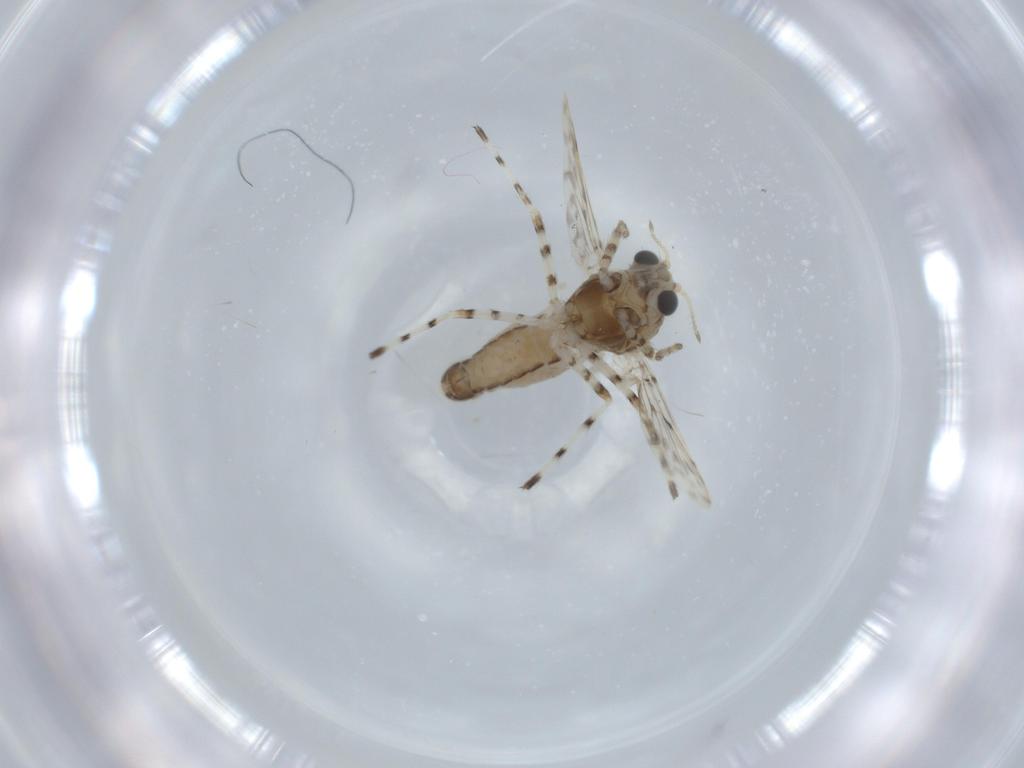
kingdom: Animalia
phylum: Arthropoda
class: Insecta
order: Diptera
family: Chironomidae
